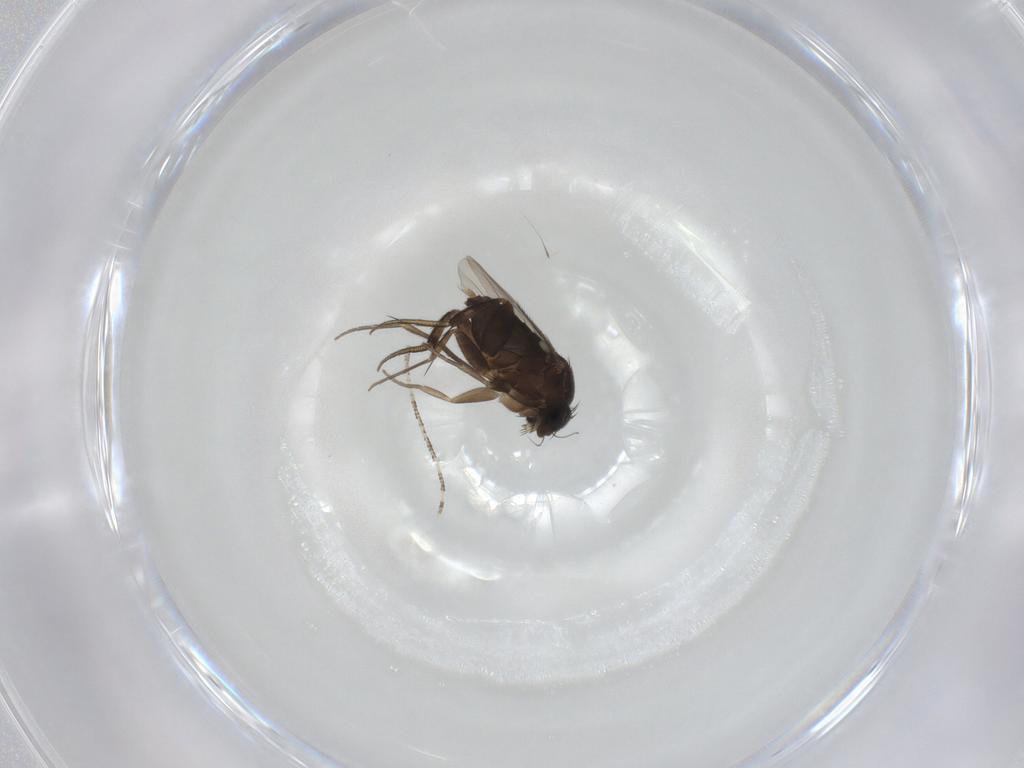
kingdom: Animalia
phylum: Arthropoda
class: Insecta
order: Diptera
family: Phoridae
